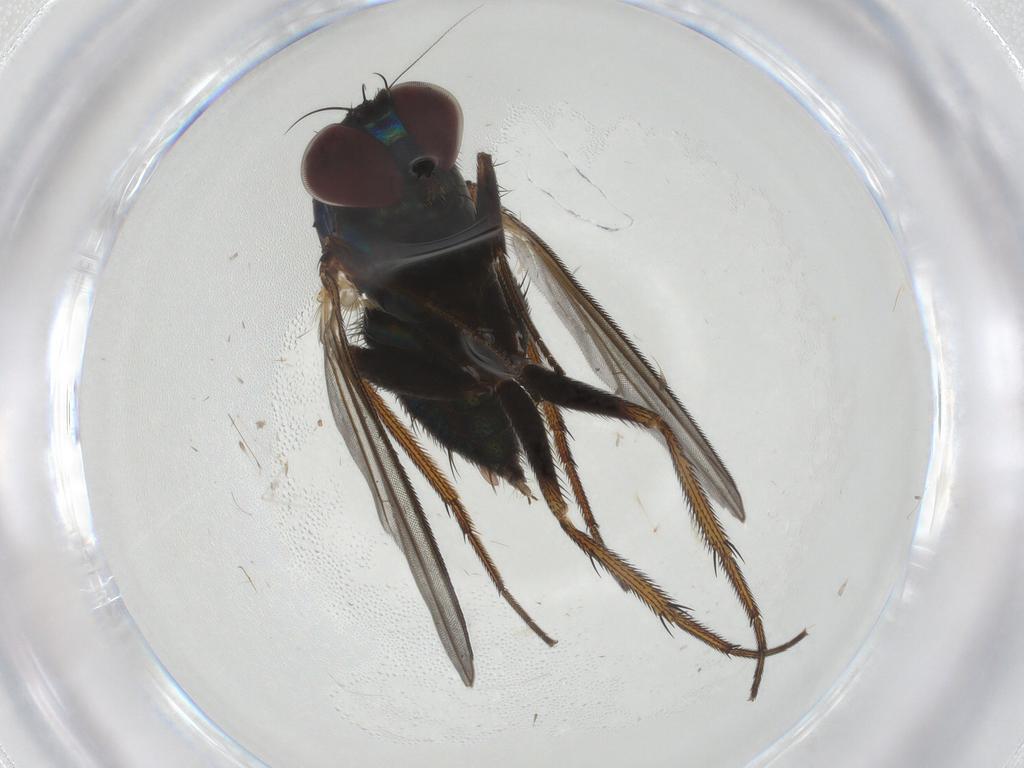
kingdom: Animalia
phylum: Arthropoda
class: Insecta
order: Diptera
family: Dolichopodidae
